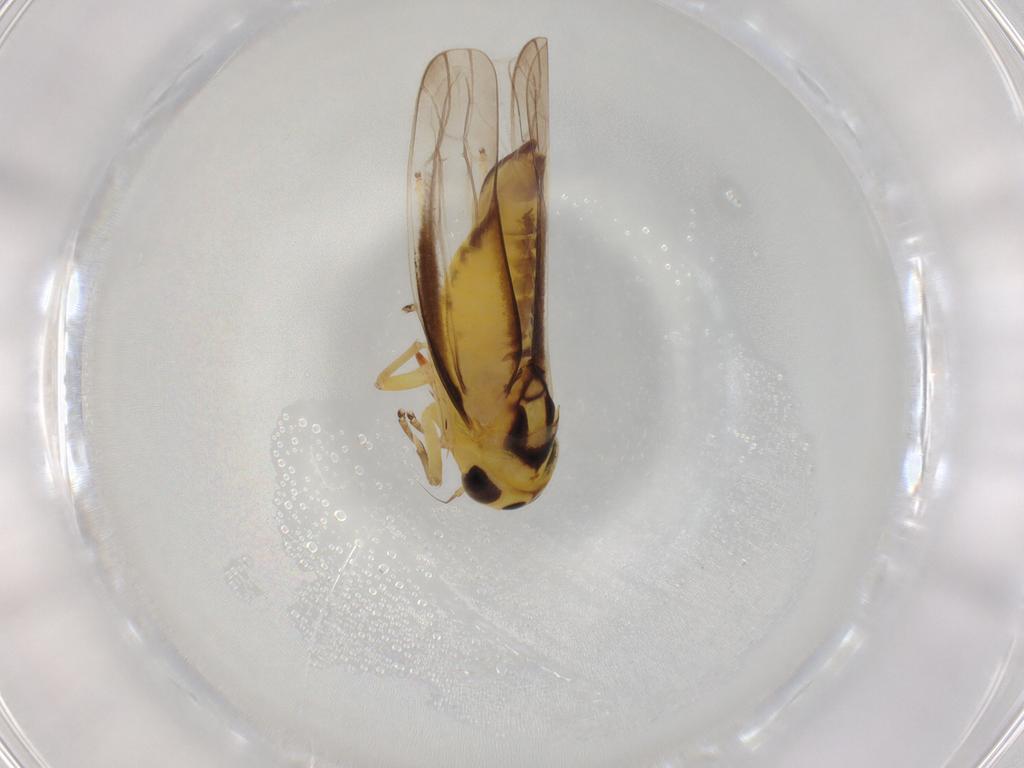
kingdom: Animalia
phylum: Arthropoda
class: Insecta
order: Hemiptera
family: Cicadellidae
